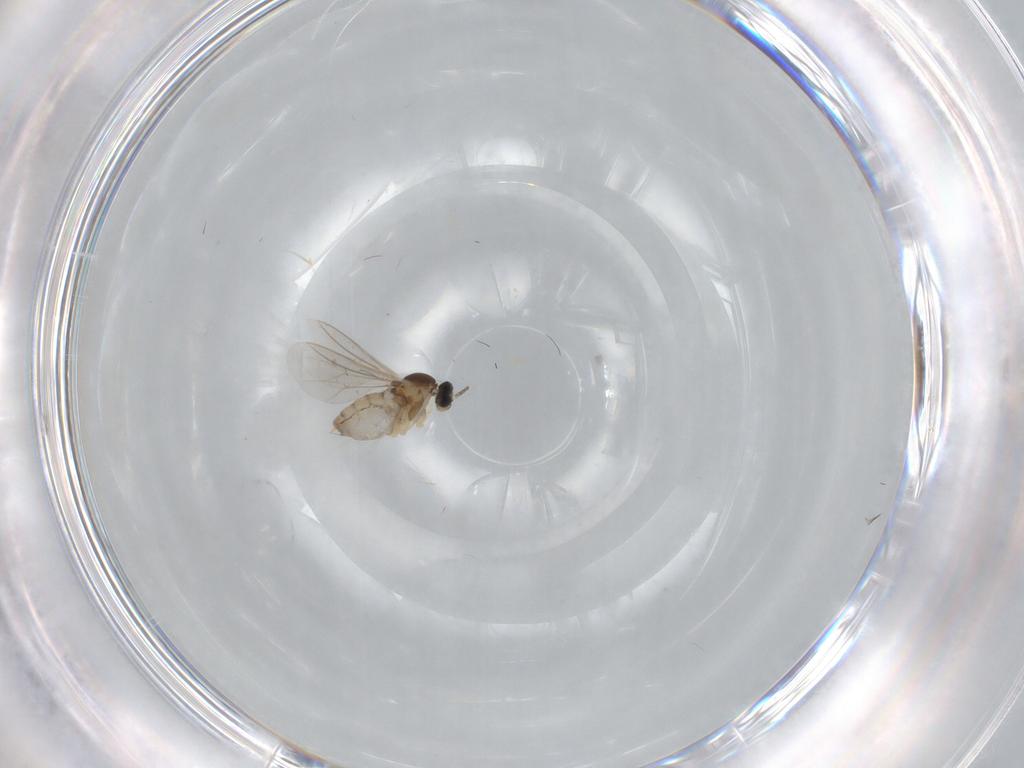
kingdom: Animalia
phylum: Arthropoda
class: Insecta
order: Diptera
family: Cecidomyiidae
